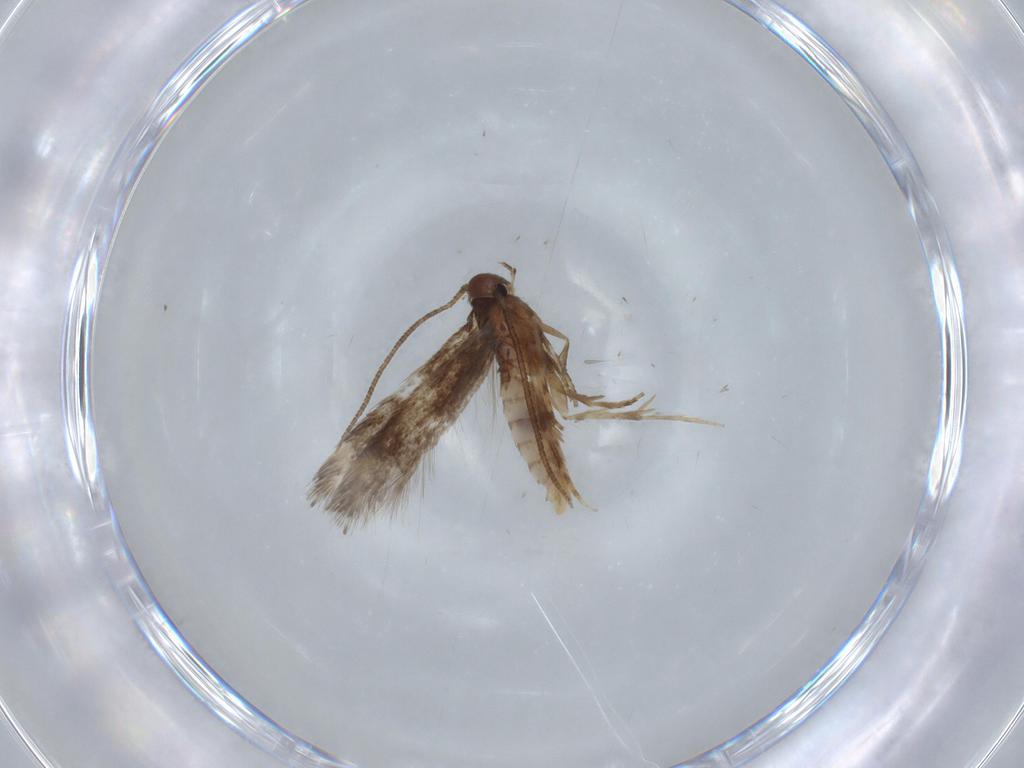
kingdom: Animalia
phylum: Arthropoda
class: Insecta
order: Lepidoptera
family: Elachistidae
